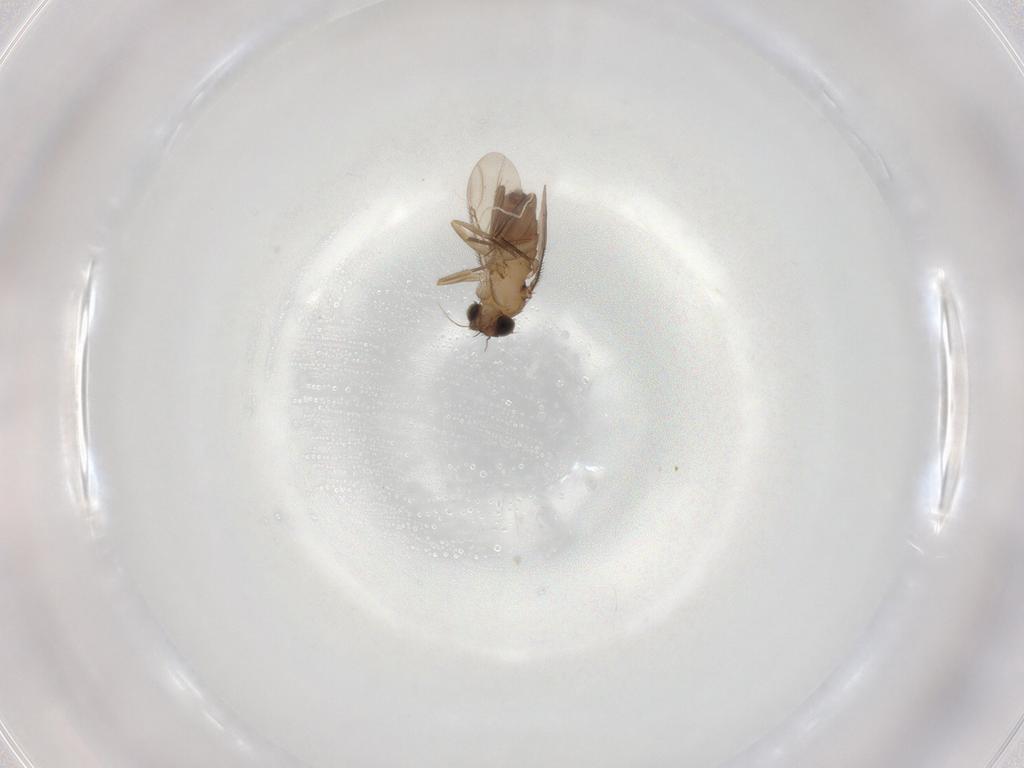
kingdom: Animalia
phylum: Arthropoda
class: Insecta
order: Diptera
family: Phoridae
